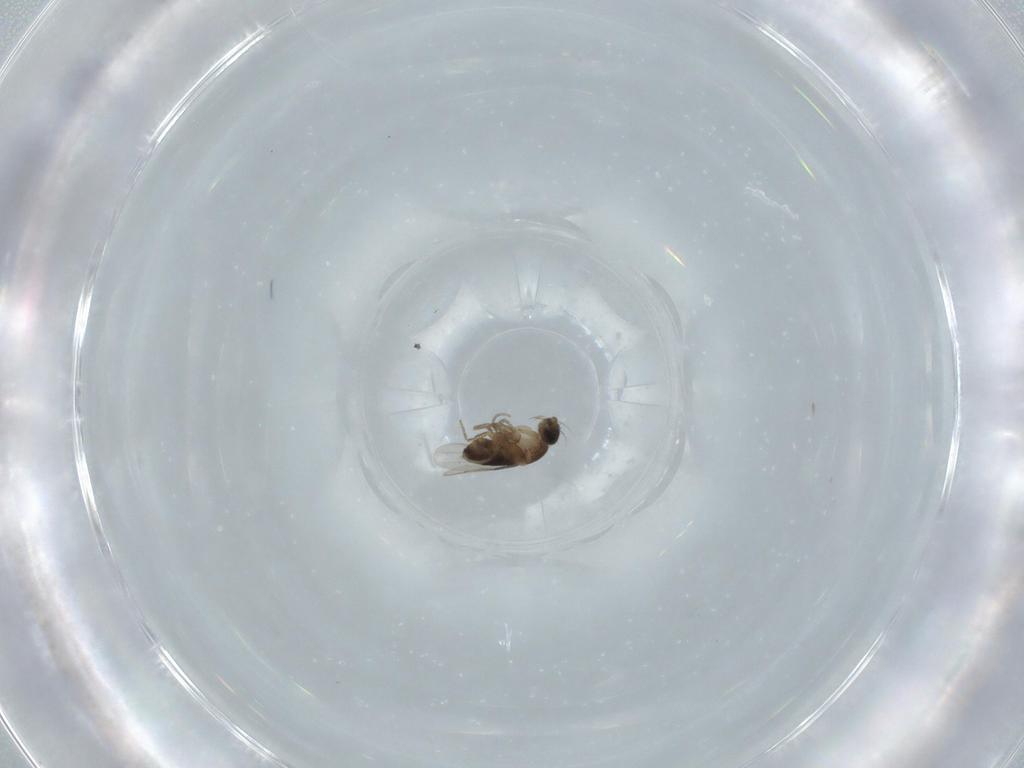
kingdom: Animalia
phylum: Arthropoda
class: Insecta
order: Diptera
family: Phoridae
